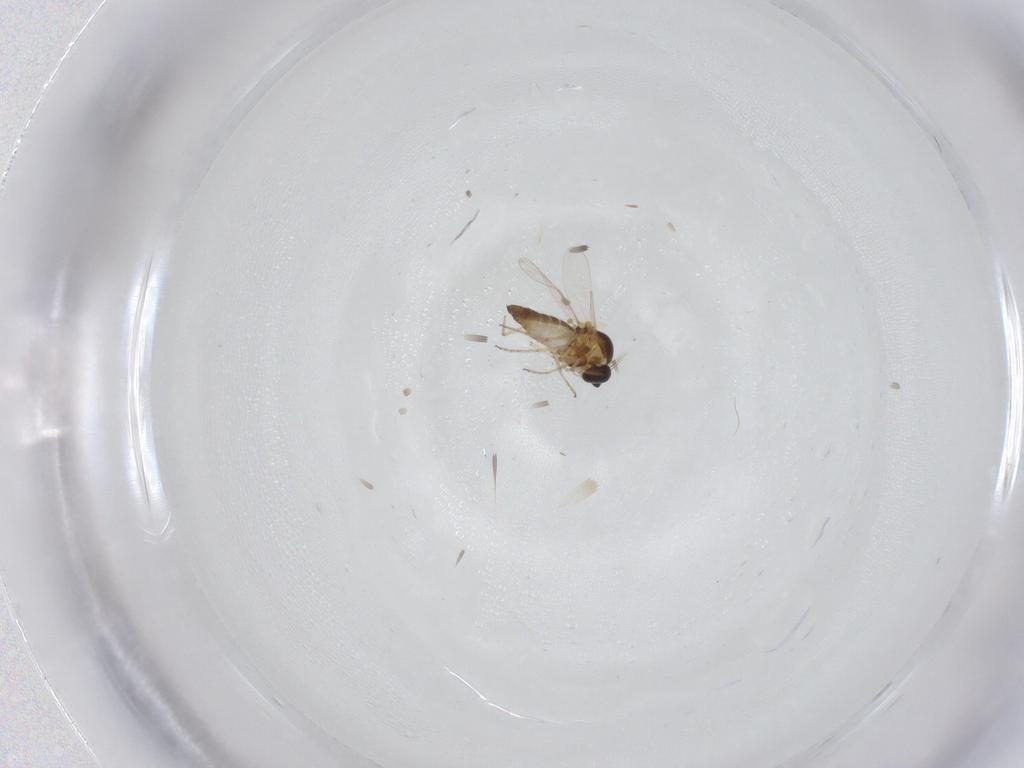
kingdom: Animalia
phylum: Arthropoda
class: Insecta
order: Diptera
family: Ceratopogonidae
